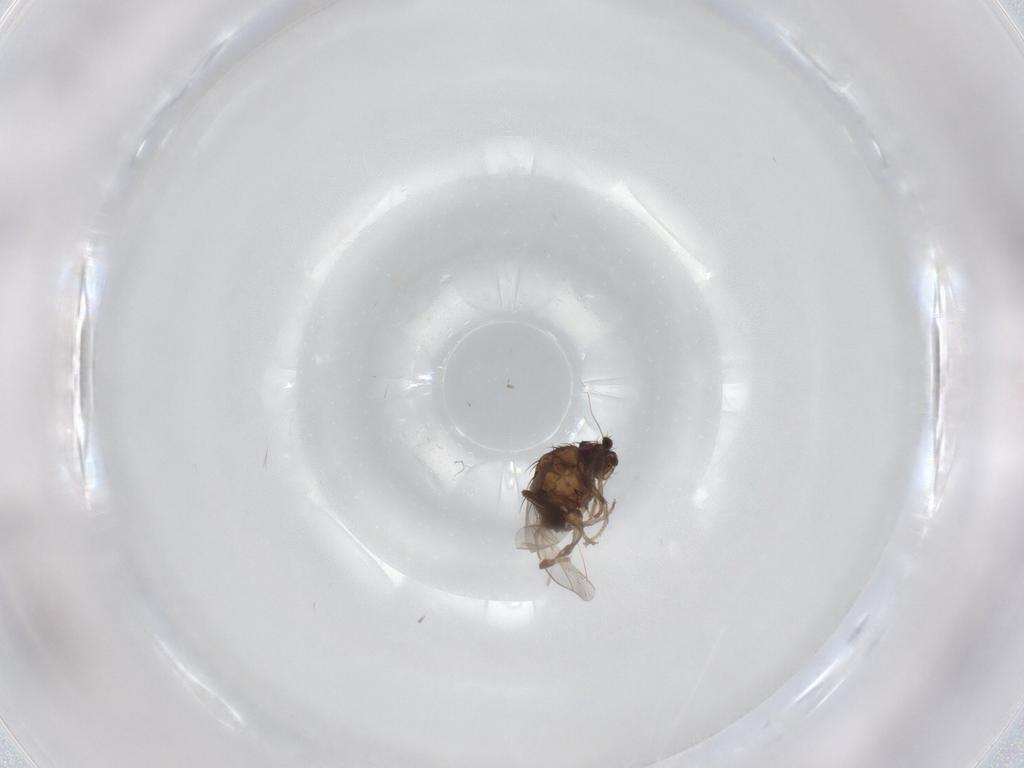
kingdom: Animalia
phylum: Arthropoda
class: Insecta
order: Diptera
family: Sphaeroceridae
